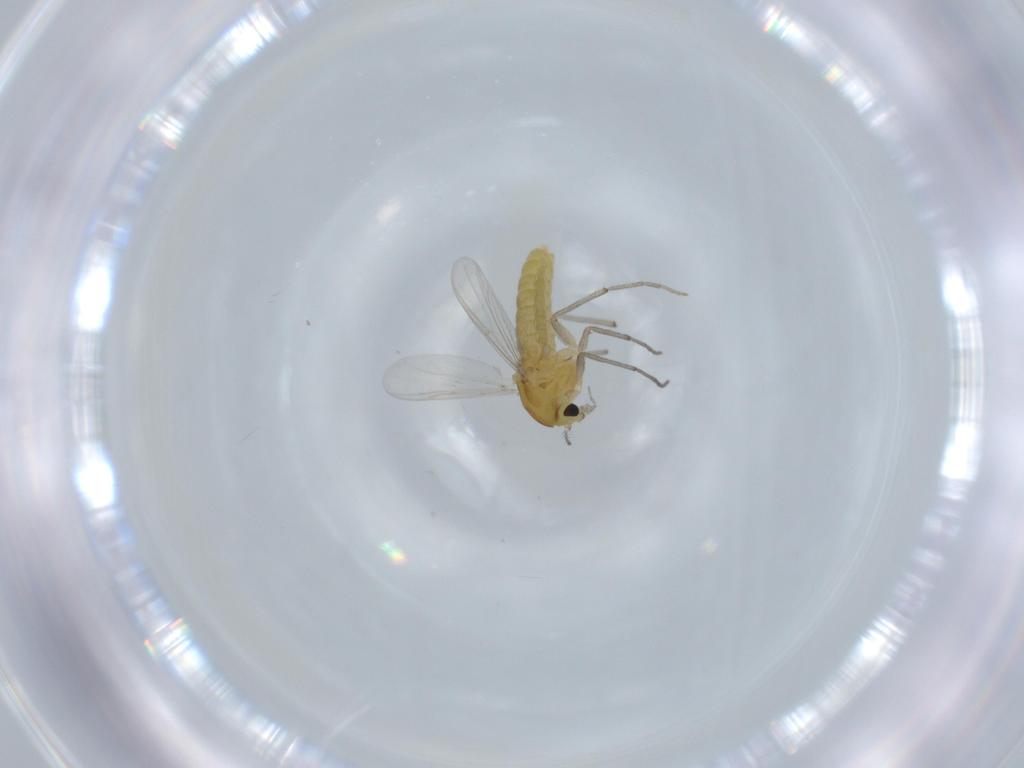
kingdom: Animalia
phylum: Arthropoda
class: Insecta
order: Diptera
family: Chironomidae
